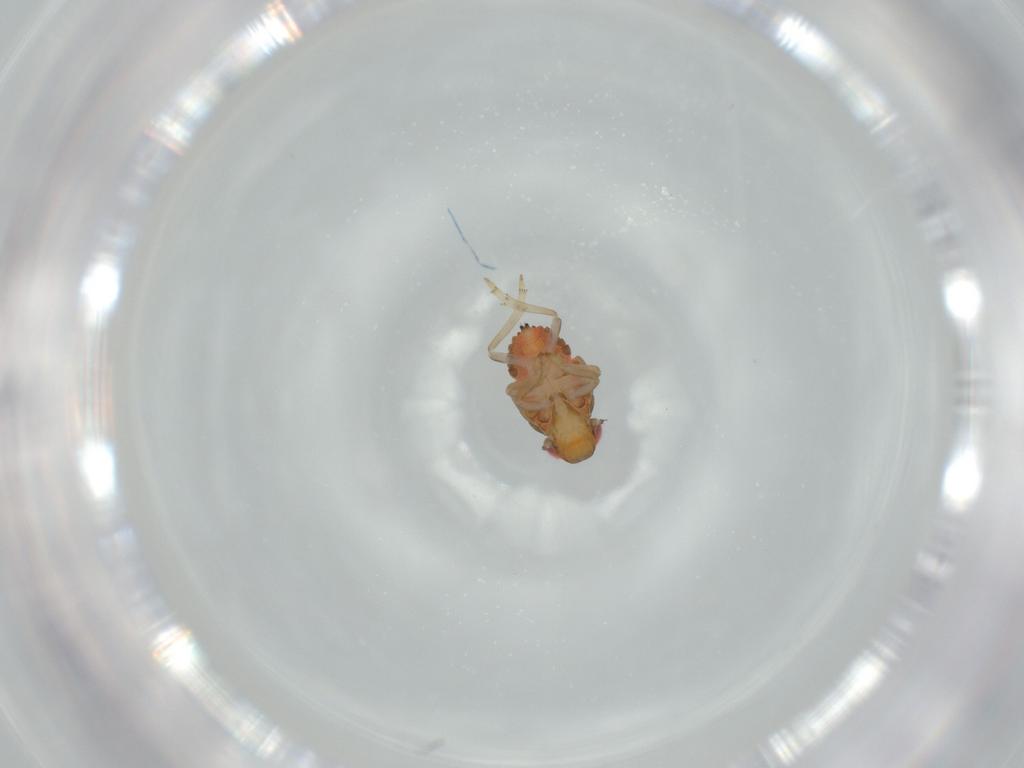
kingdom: Animalia
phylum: Arthropoda
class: Insecta
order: Hemiptera
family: Issidae
